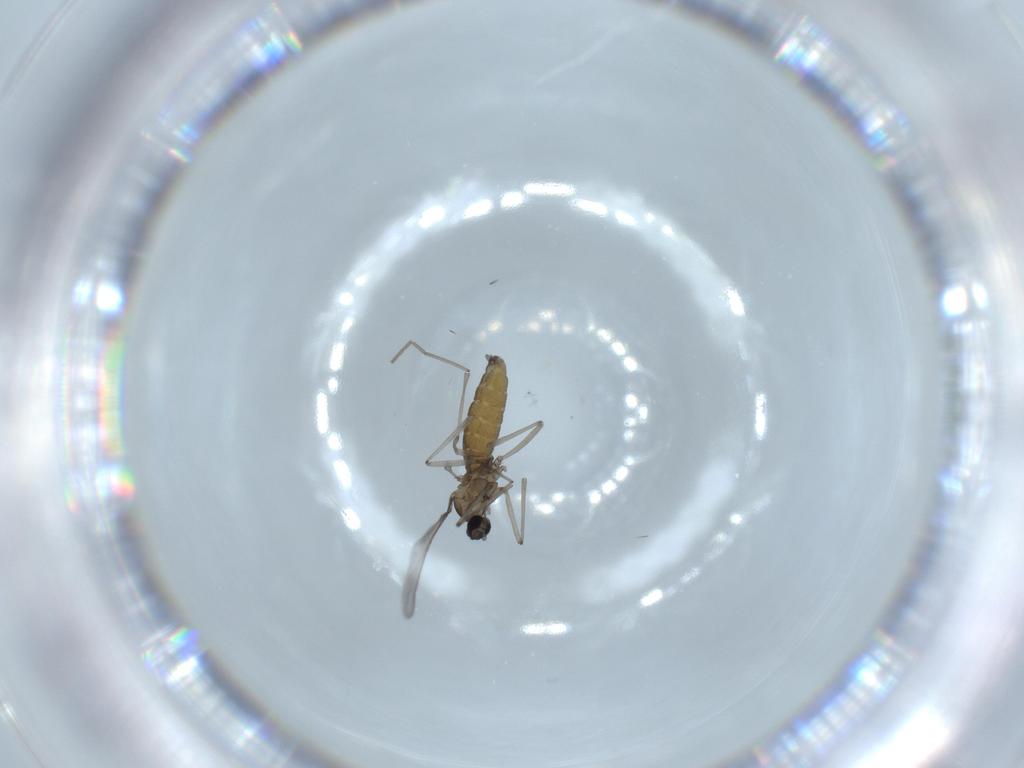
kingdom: Animalia
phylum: Arthropoda
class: Insecta
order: Diptera
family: Cecidomyiidae
